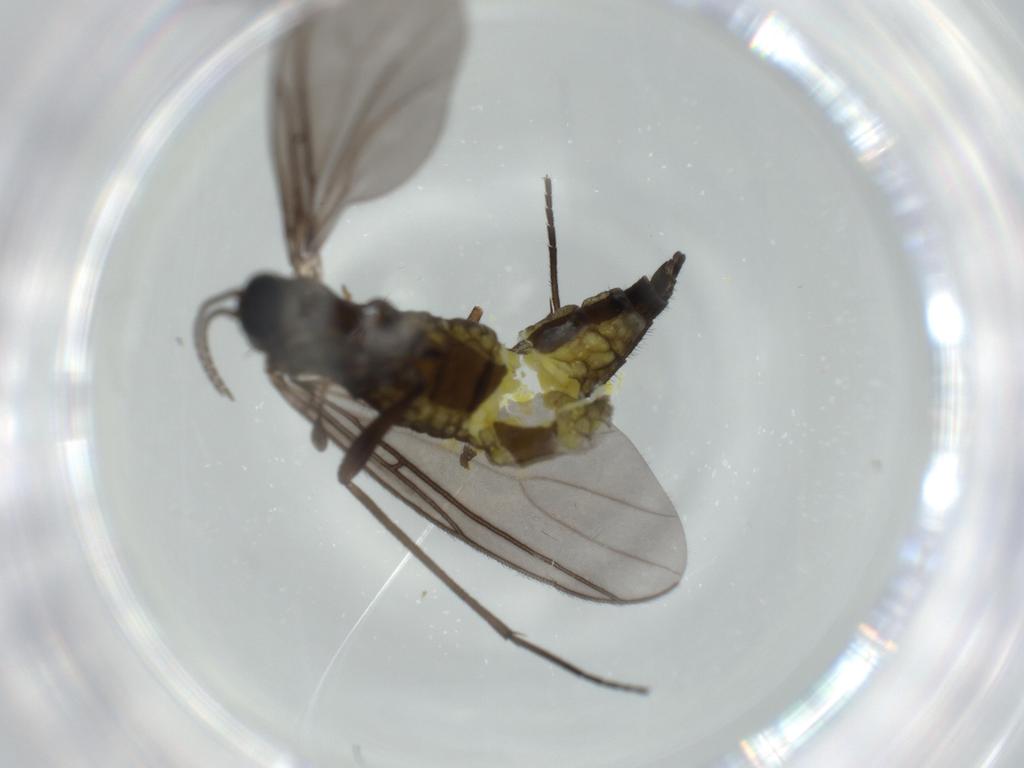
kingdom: Animalia
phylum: Arthropoda
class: Insecta
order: Diptera
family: Sciaridae
